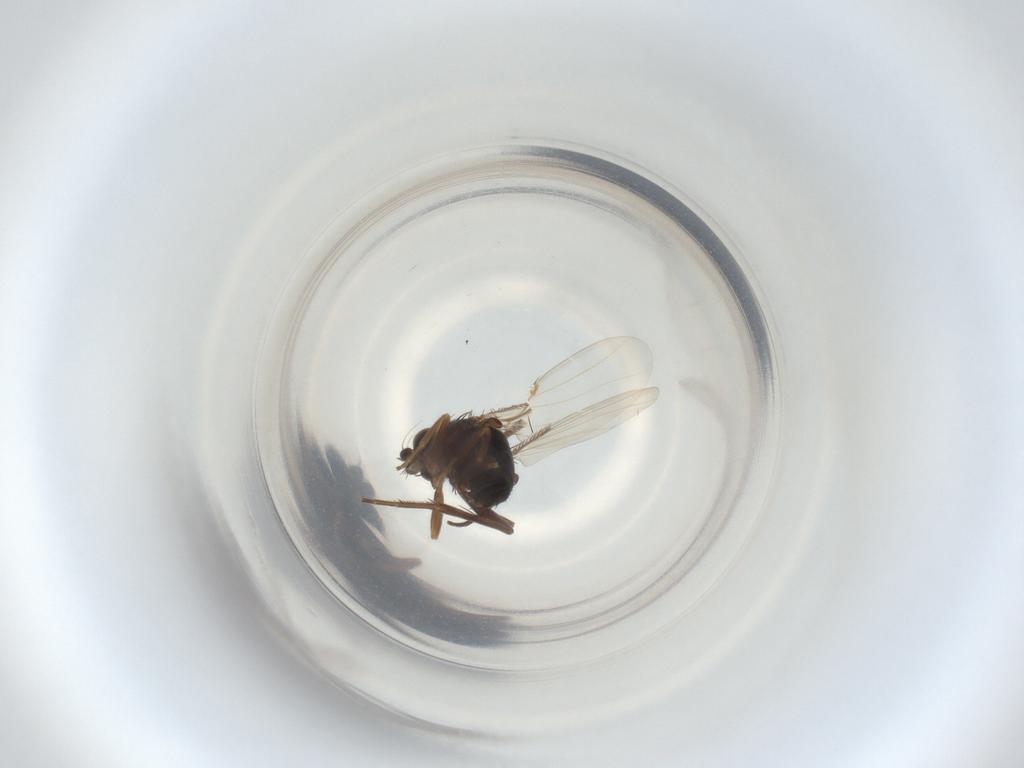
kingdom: Animalia
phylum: Arthropoda
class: Insecta
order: Diptera
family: Phoridae
